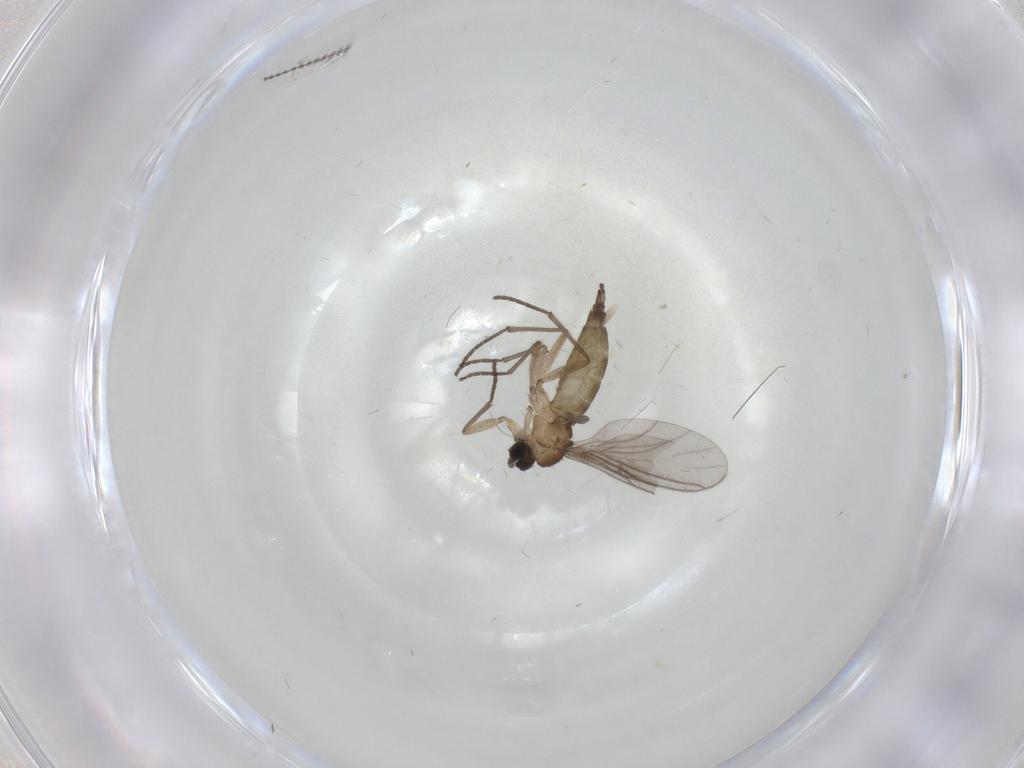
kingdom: Animalia
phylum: Arthropoda
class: Insecta
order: Diptera
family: Sciaridae
